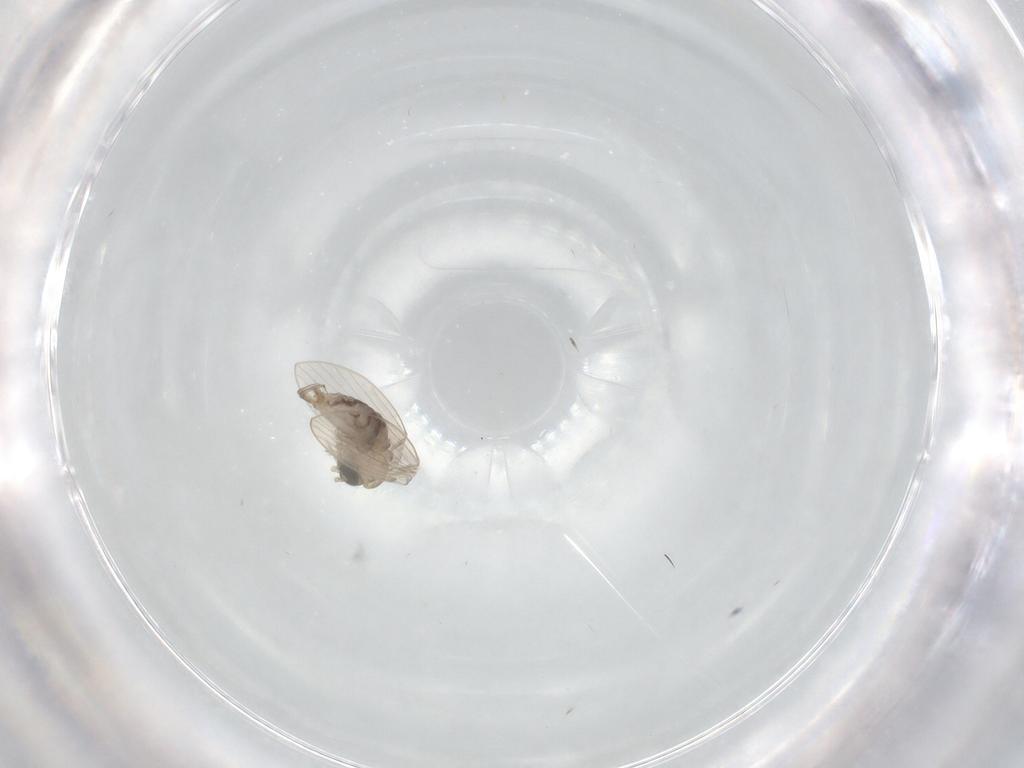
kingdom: Animalia
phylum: Arthropoda
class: Insecta
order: Diptera
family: Psychodidae
